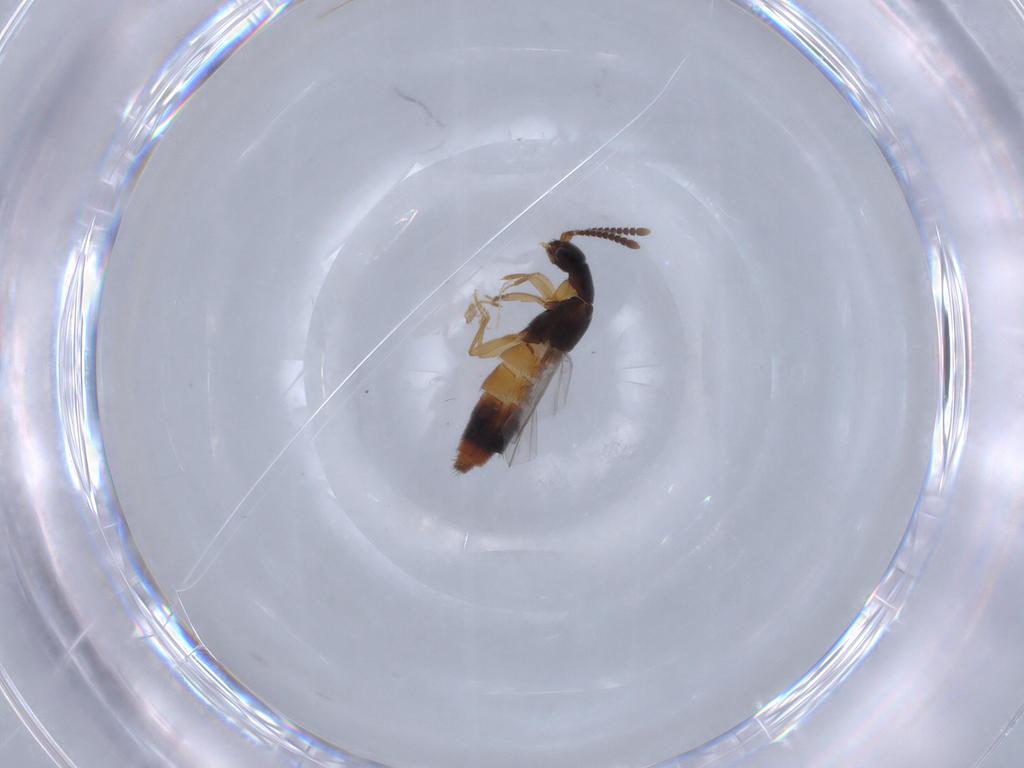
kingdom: Animalia
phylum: Arthropoda
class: Insecta
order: Coleoptera
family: Staphylinidae
